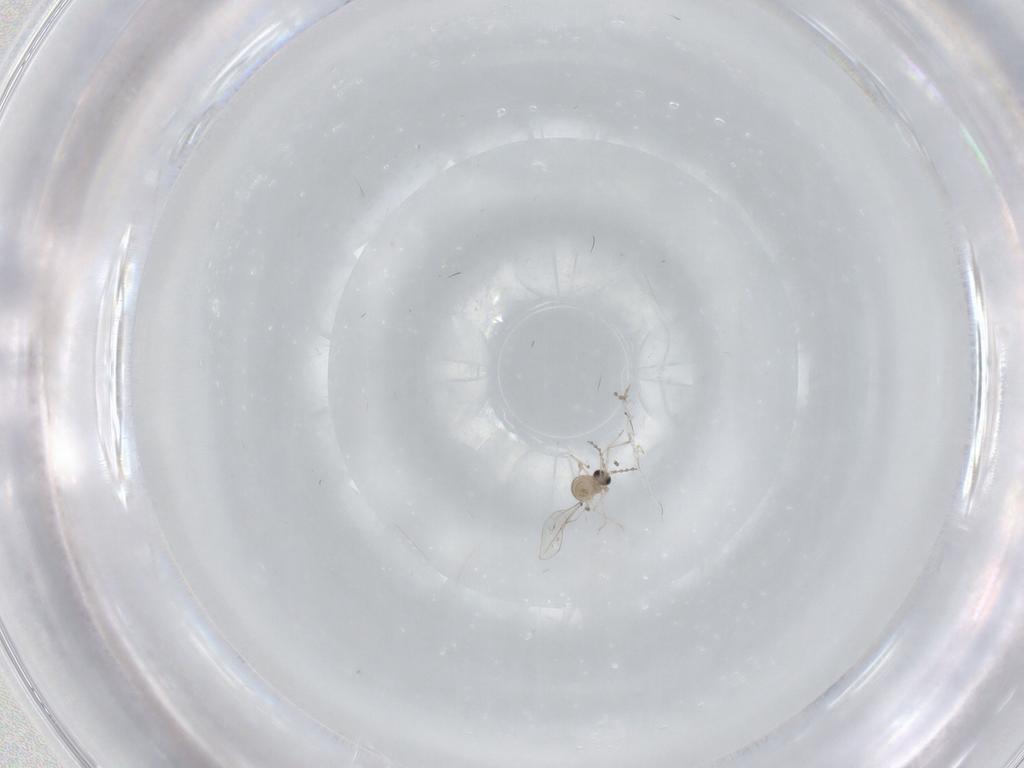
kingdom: Animalia
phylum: Arthropoda
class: Insecta
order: Diptera
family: Cecidomyiidae
